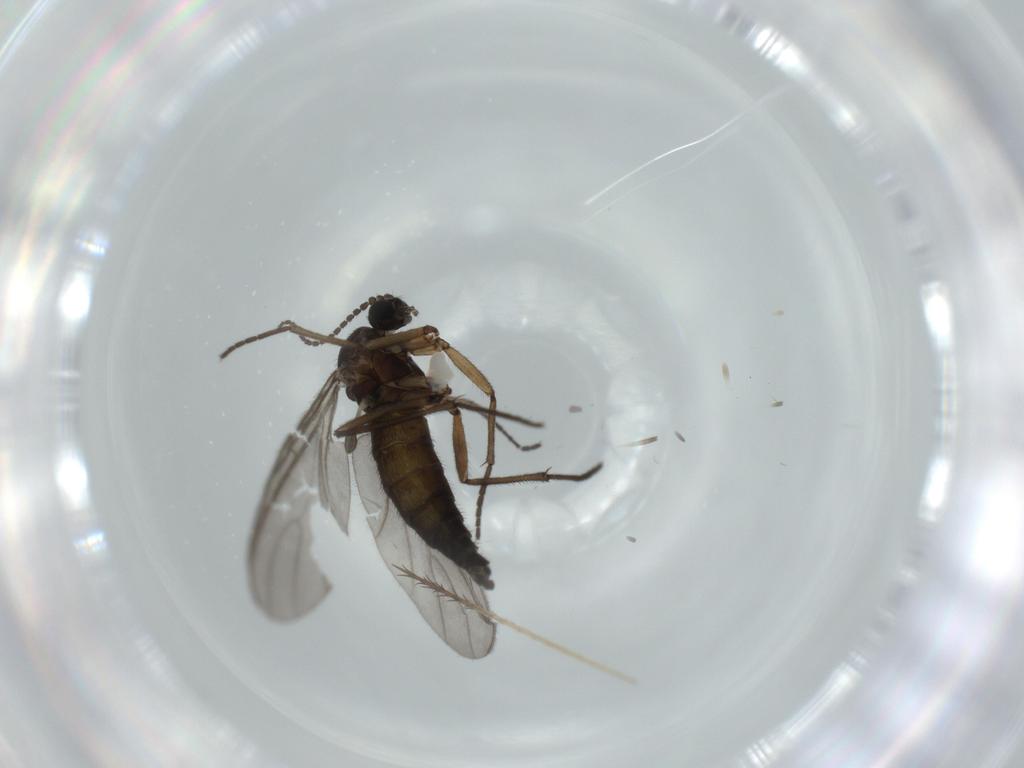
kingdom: Animalia
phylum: Arthropoda
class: Insecta
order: Diptera
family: Sciaridae
